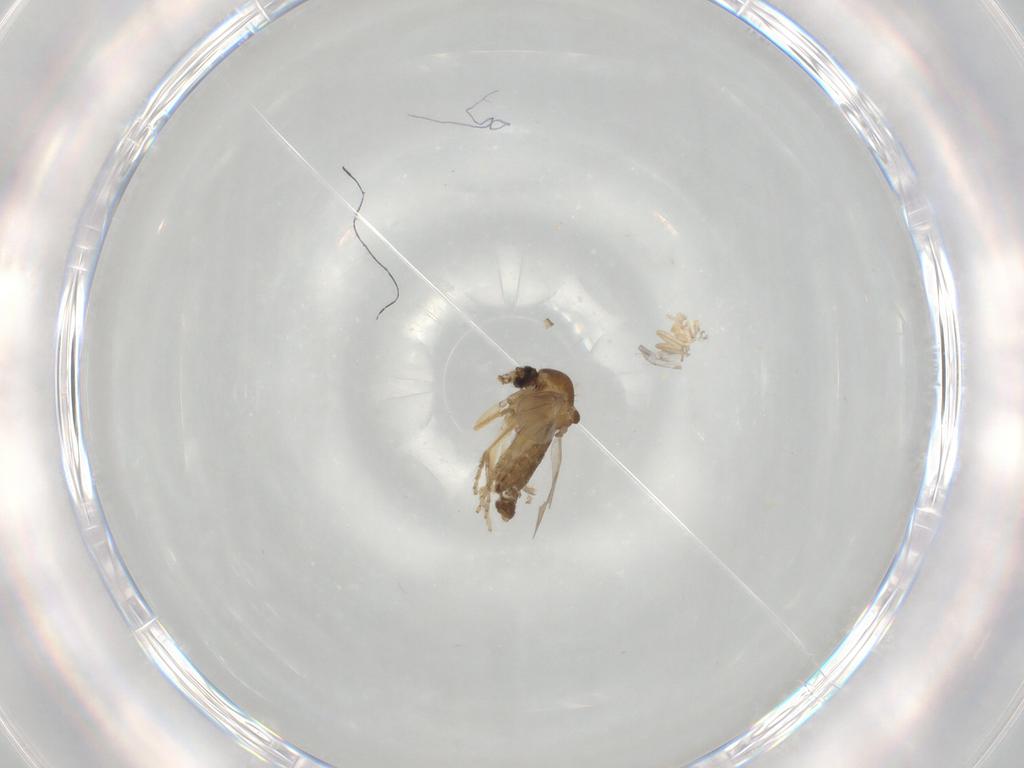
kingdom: Animalia
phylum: Arthropoda
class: Insecta
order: Diptera
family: Ceratopogonidae
